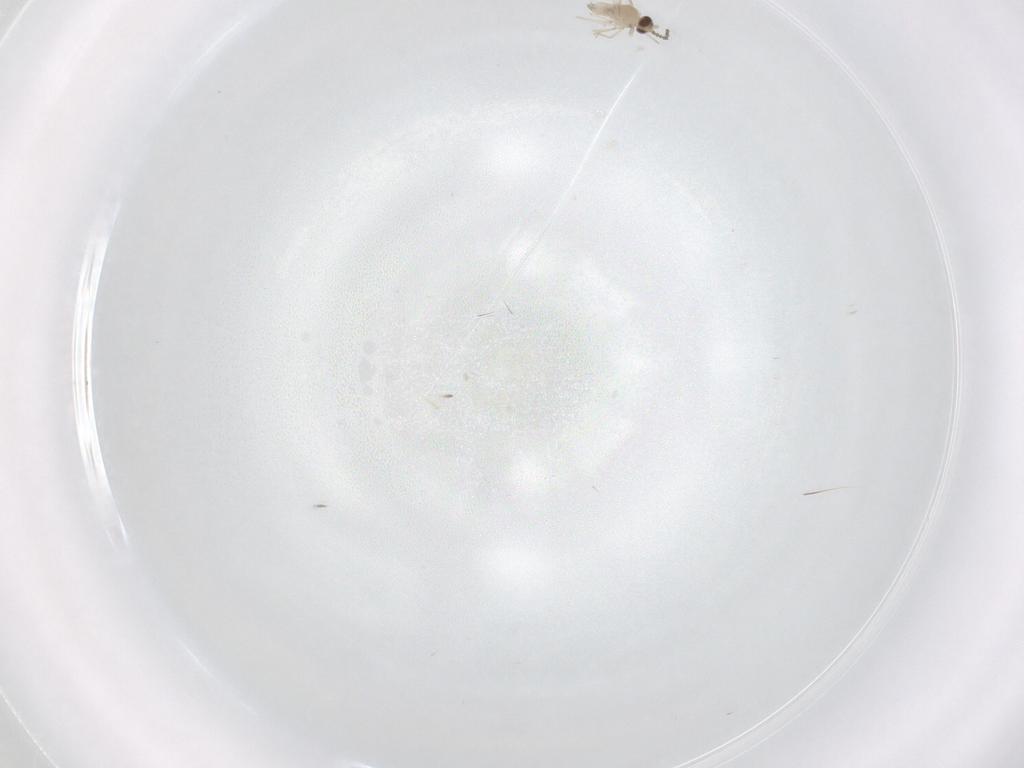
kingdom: Animalia
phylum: Arthropoda
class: Insecta
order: Diptera
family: Cecidomyiidae
